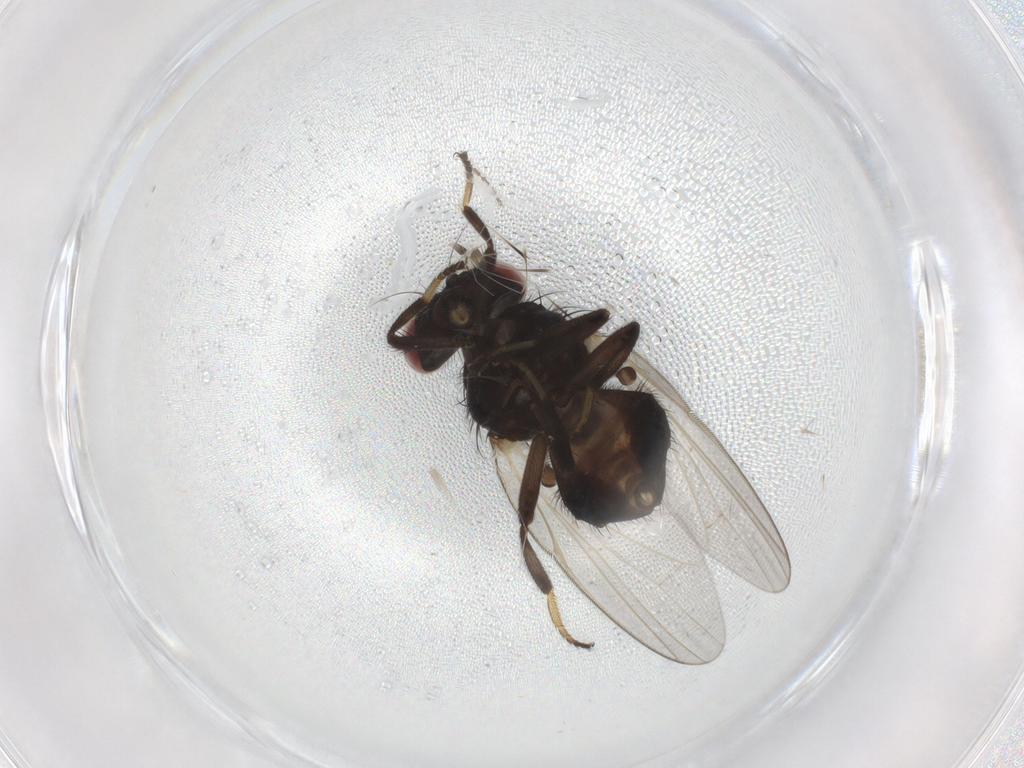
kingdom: Animalia
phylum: Arthropoda
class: Insecta
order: Diptera
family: Lonchaeidae
